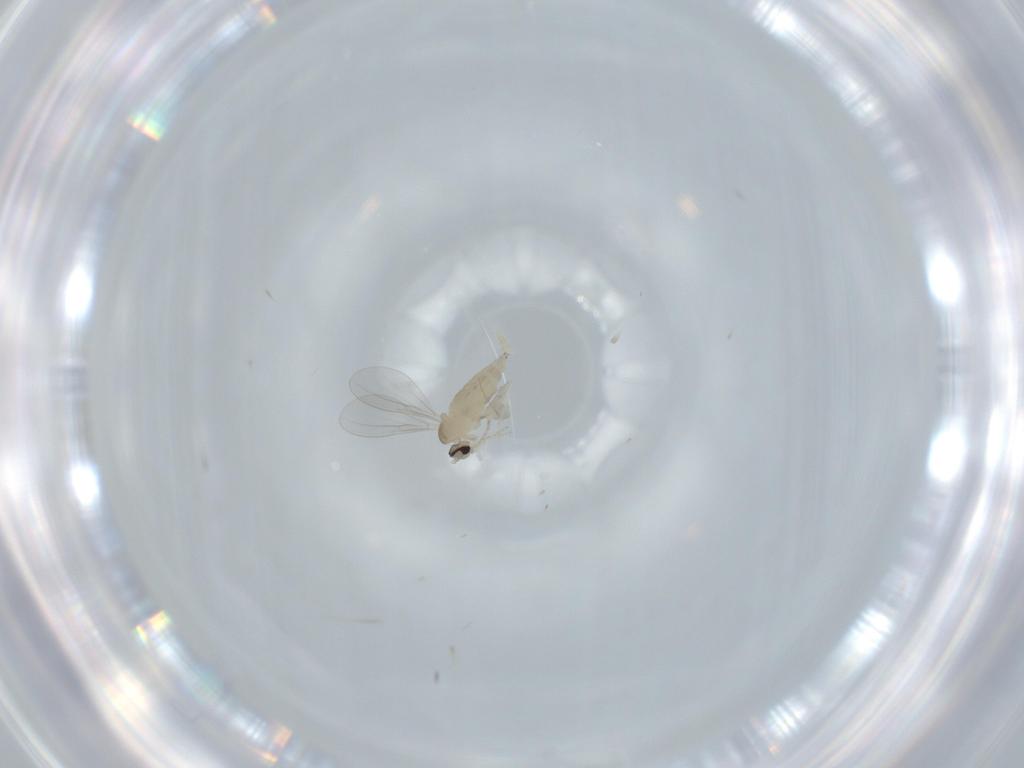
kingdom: Animalia
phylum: Arthropoda
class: Insecta
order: Diptera
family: Cecidomyiidae
